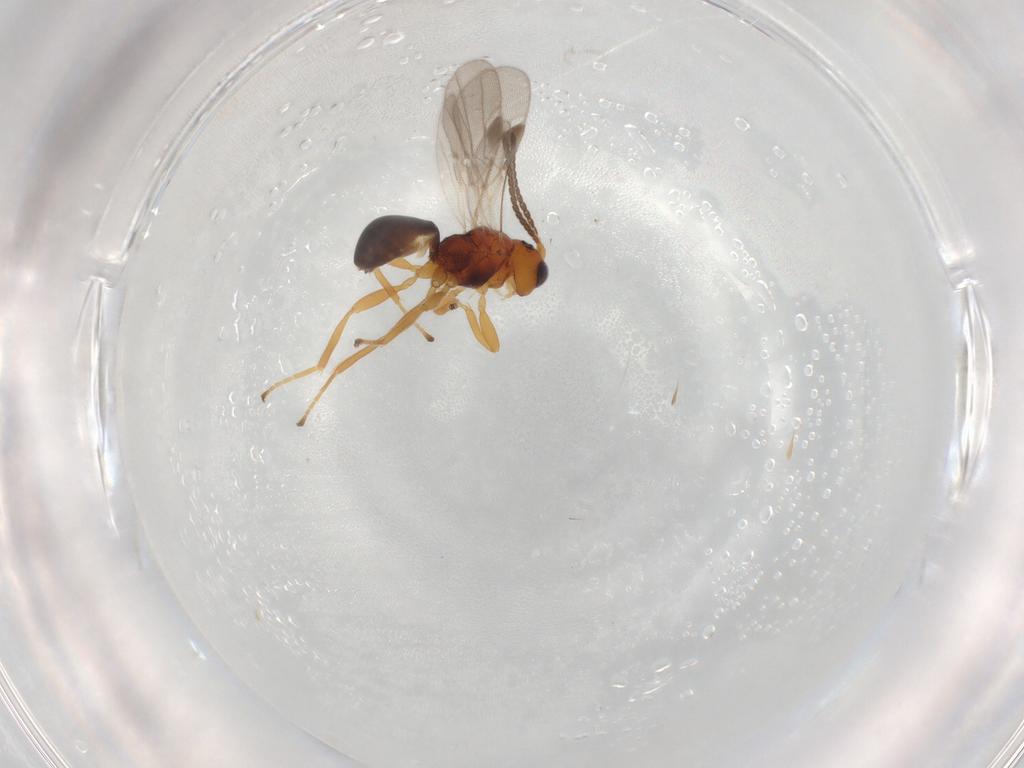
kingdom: Animalia
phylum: Arthropoda
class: Insecta
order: Hymenoptera
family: Braconidae
